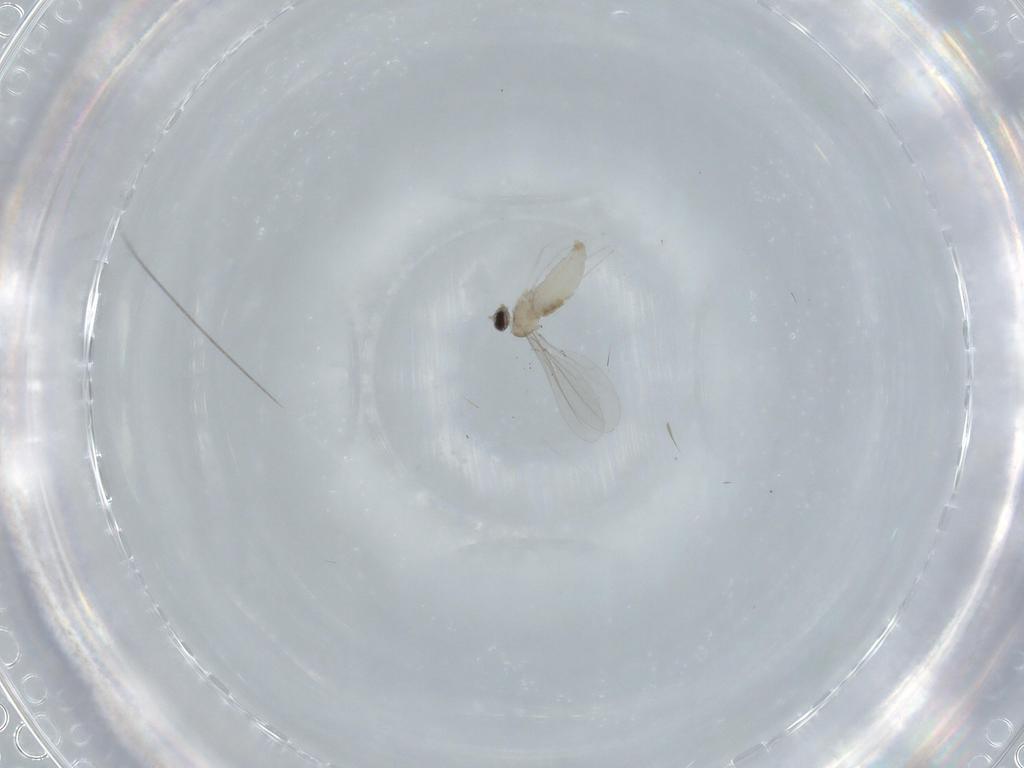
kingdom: Animalia
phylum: Arthropoda
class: Insecta
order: Diptera
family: Cecidomyiidae
